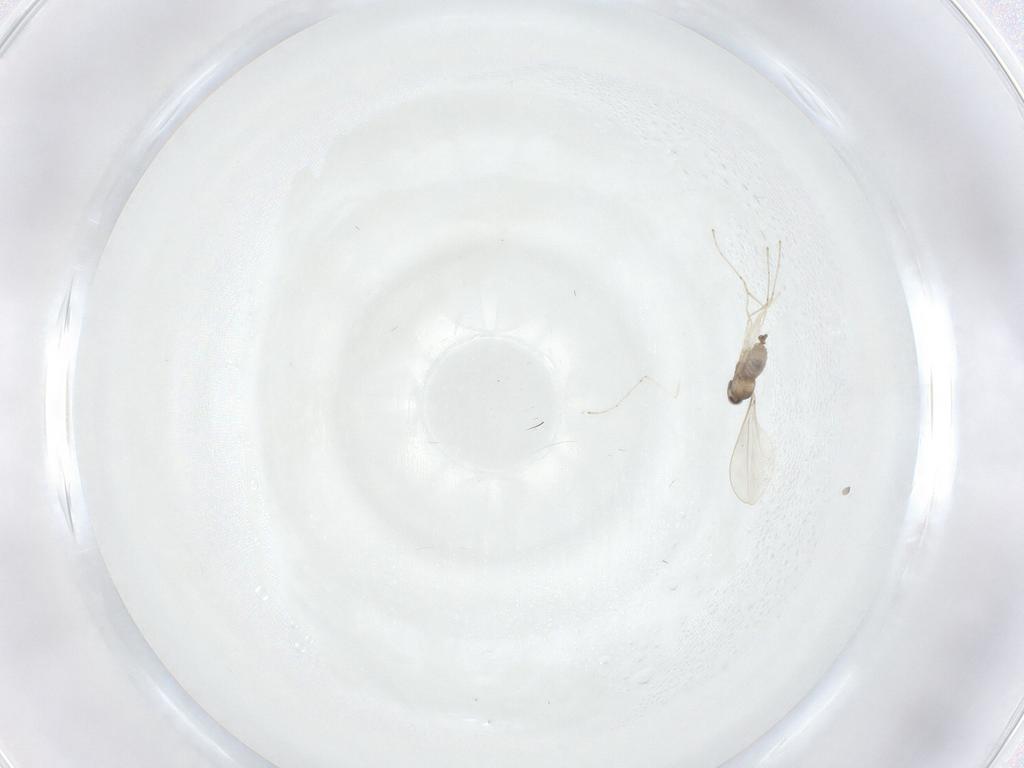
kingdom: Animalia
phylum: Arthropoda
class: Insecta
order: Diptera
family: Cecidomyiidae
